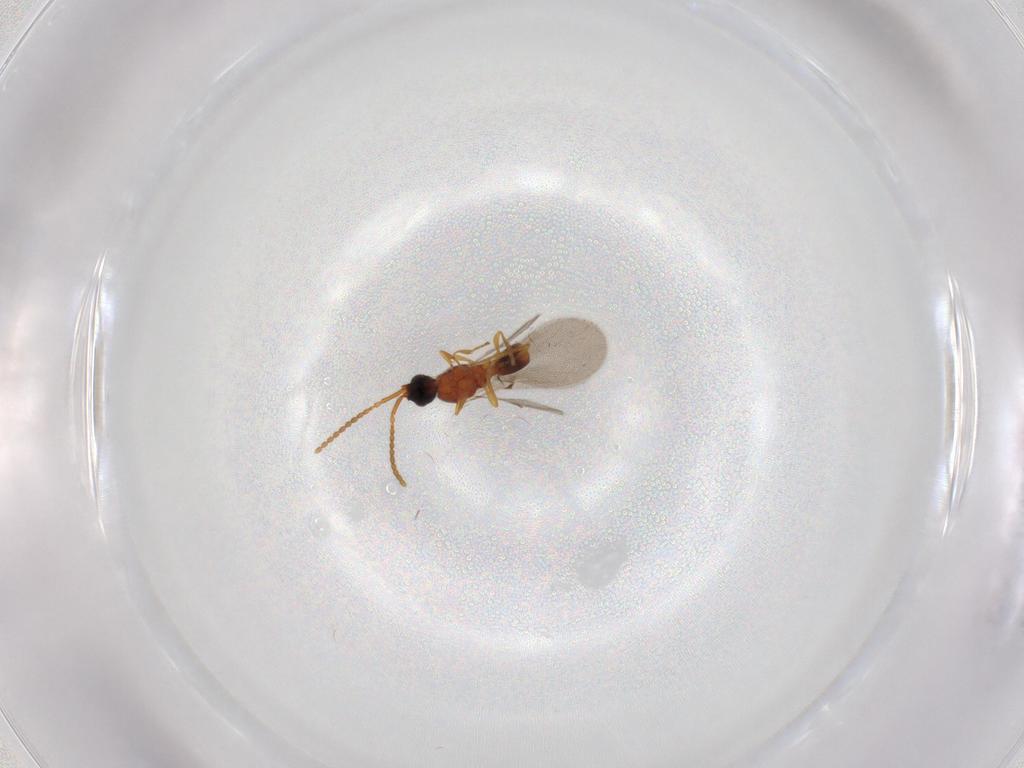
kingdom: Animalia
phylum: Arthropoda
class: Insecta
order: Hymenoptera
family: Diapriidae
